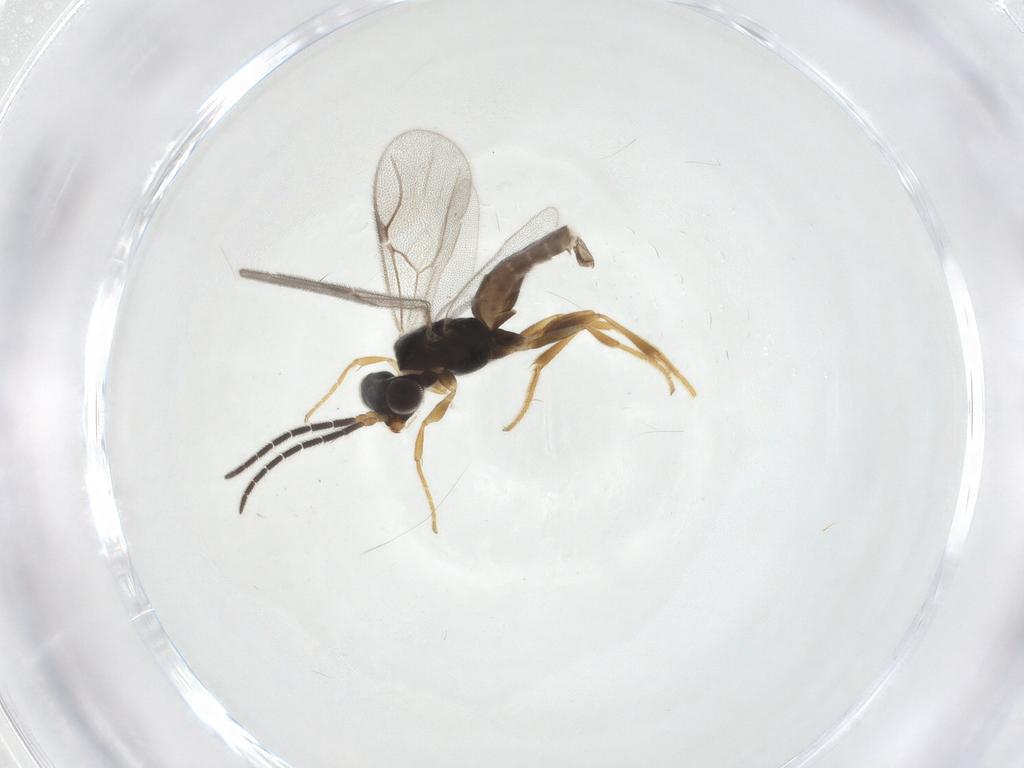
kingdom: Animalia
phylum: Arthropoda
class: Insecta
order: Hymenoptera
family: Dryinidae
